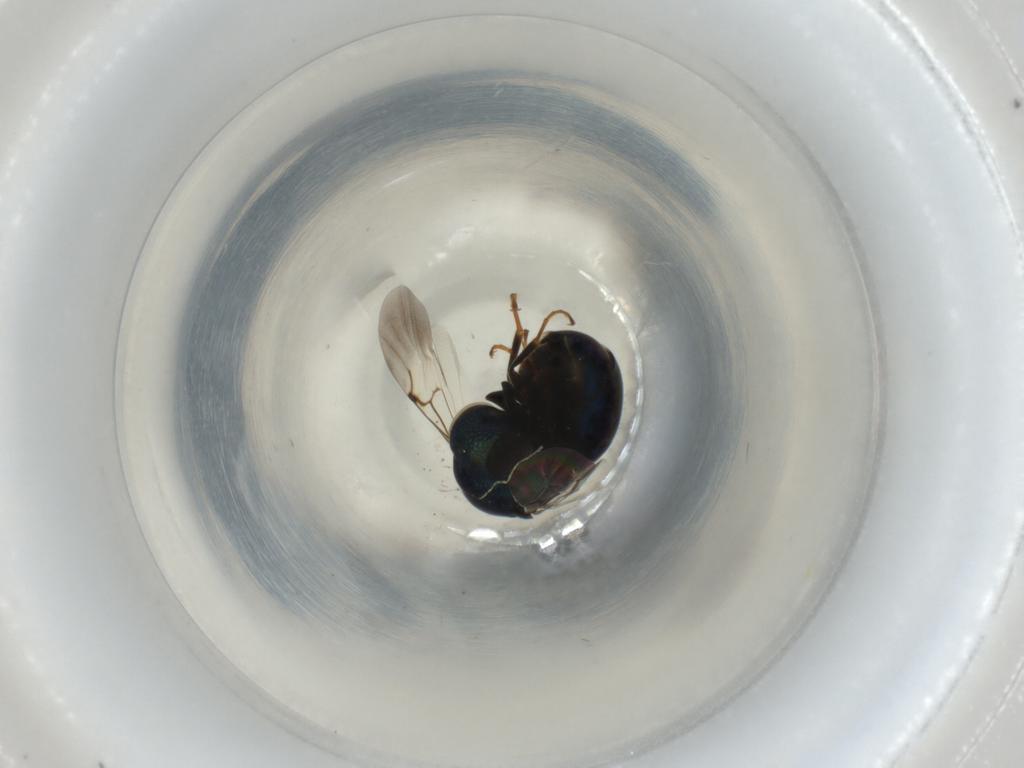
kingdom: Animalia
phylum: Arthropoda
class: Insecta
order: Hymenoptera
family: Chrysididae
